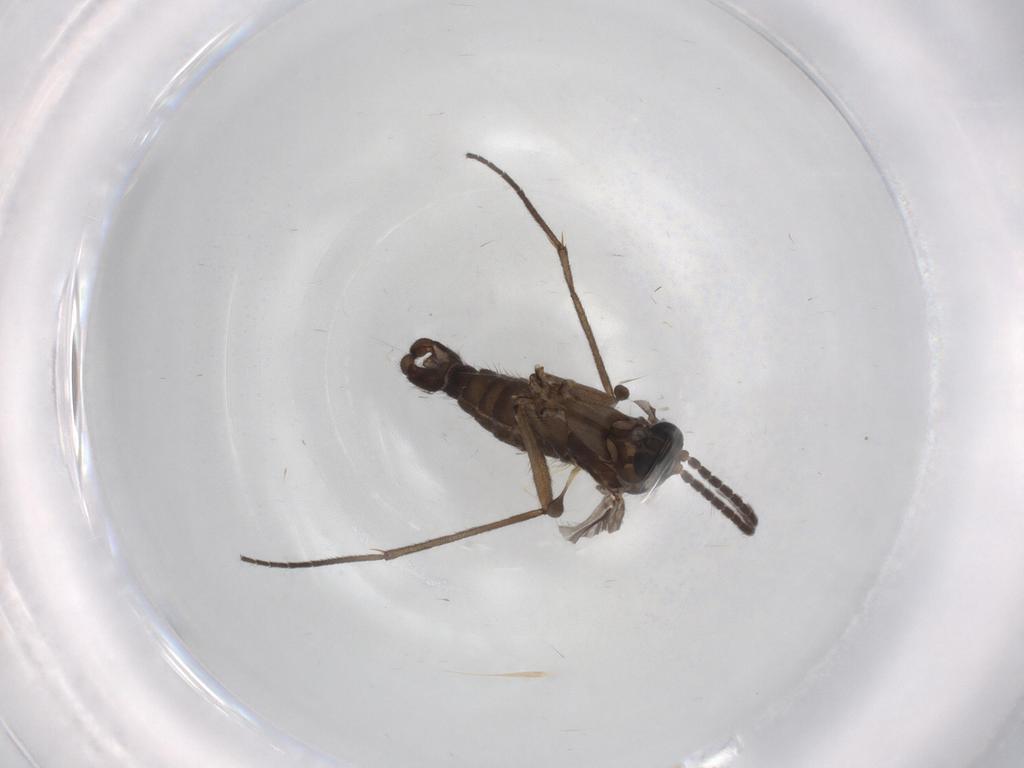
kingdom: Animalia
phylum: Arthropoda
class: Insecta
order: Diptera
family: Sciaridae
